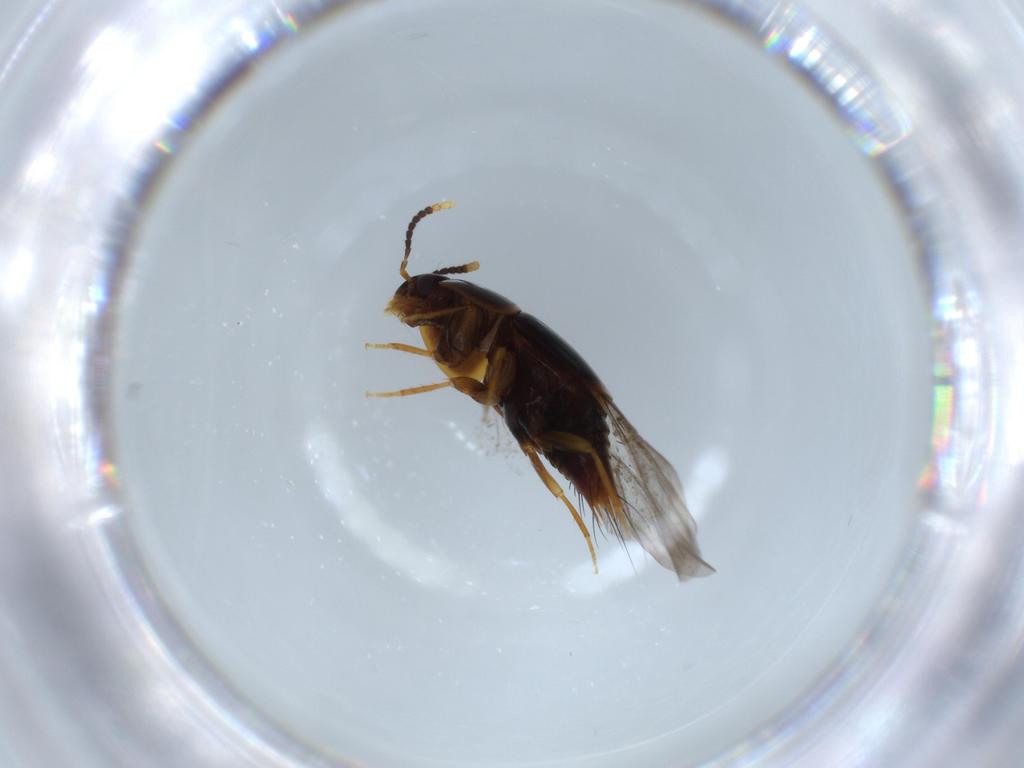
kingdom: Animalia
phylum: Arthropoda
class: Insecta
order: Coleoptera
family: Staphylinidae
